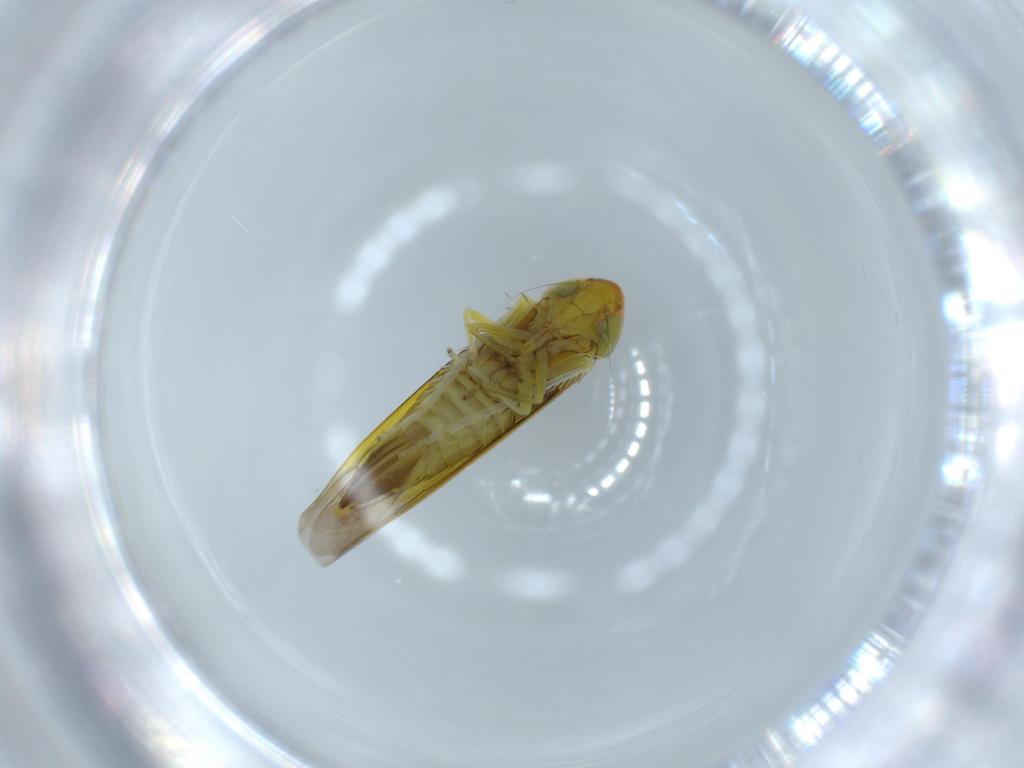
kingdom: Animalia
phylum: Arthropoda
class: Insecta
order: Hemiptera
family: Cicadellidae
